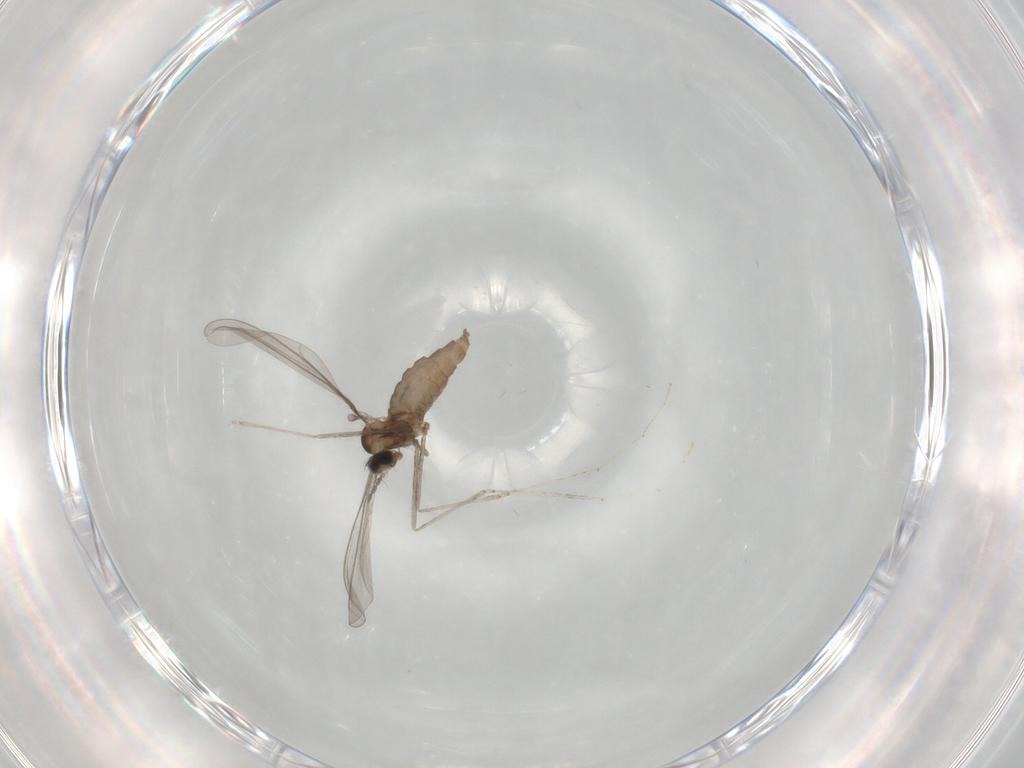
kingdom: Animalia
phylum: Arthropoda
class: Insecta
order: Diptera
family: Cecidomyiidae
